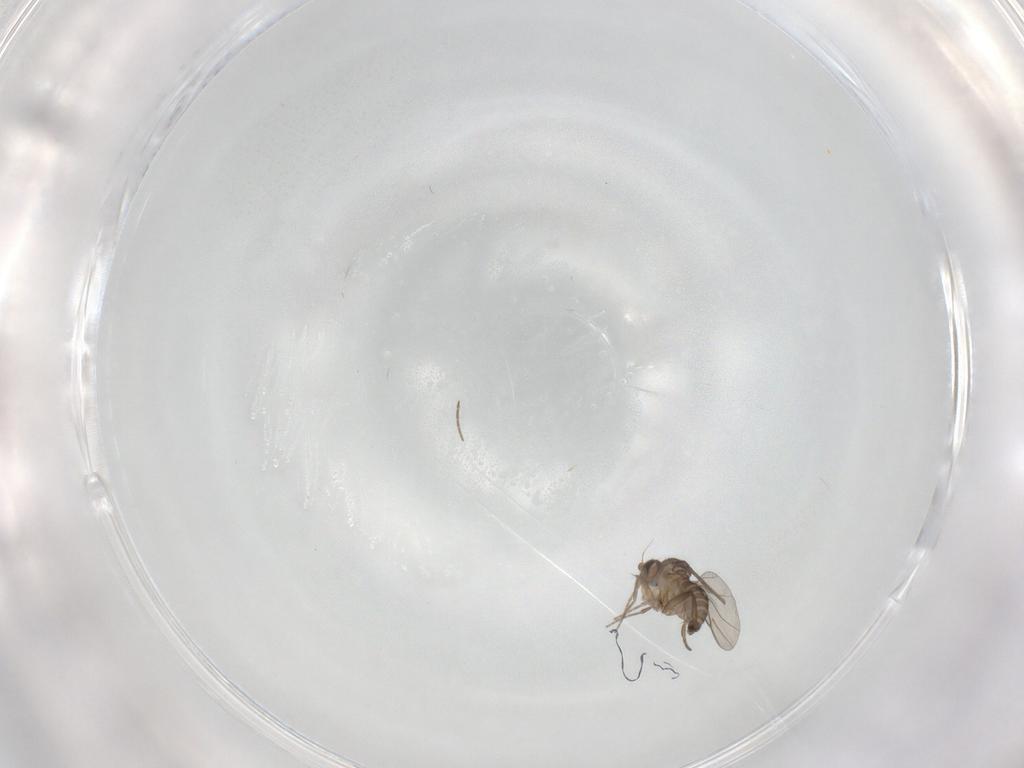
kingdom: Animalia
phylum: Arthropoda
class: Insecta
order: Diptera
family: Phoridae
